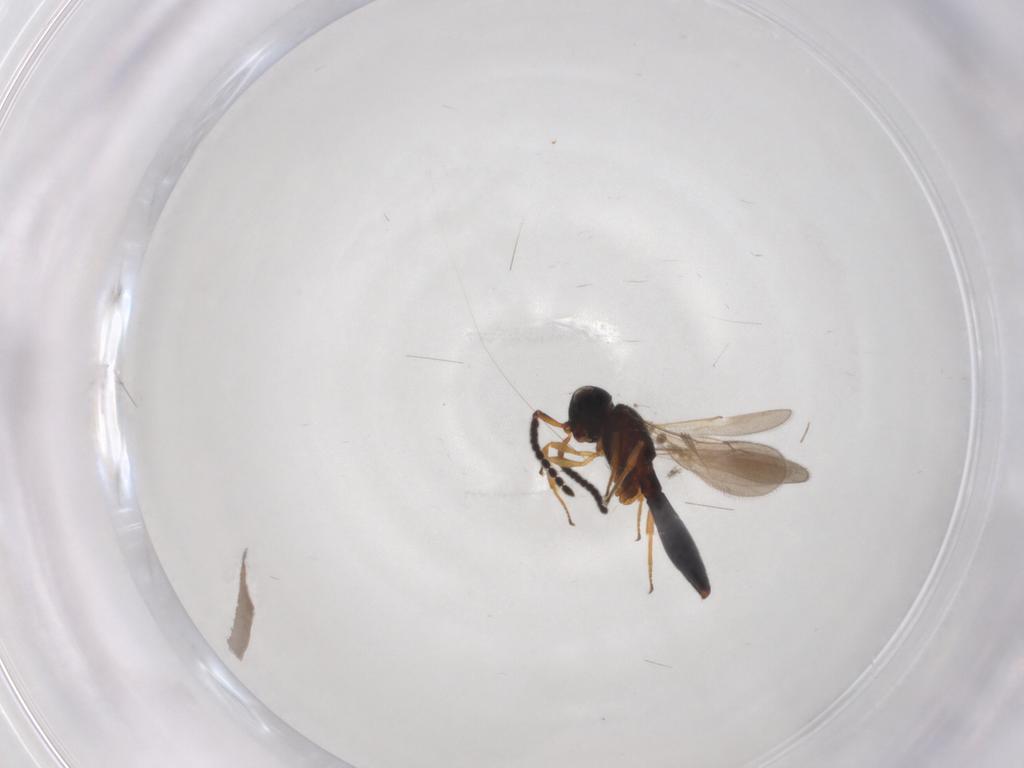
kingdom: Animalia
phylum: Arthropoda
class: Insecta
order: Hymenoptera
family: Scelionidae
